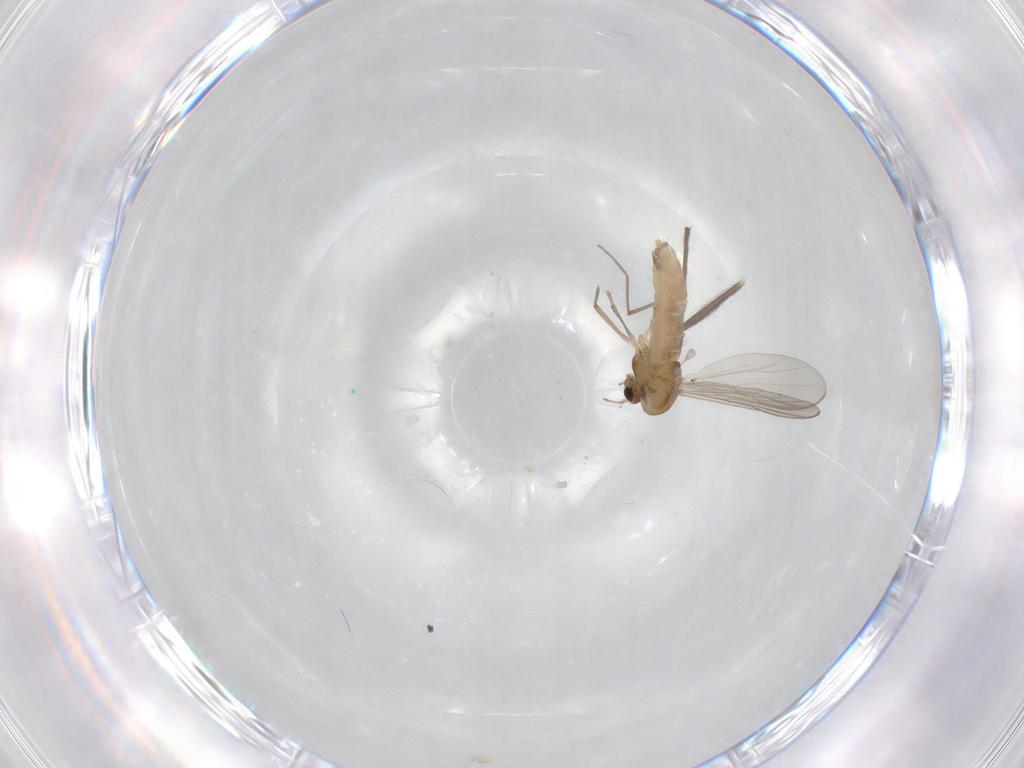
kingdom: Animalia
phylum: Arthropoda
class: Insecta
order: Diptera
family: Chironomidae
